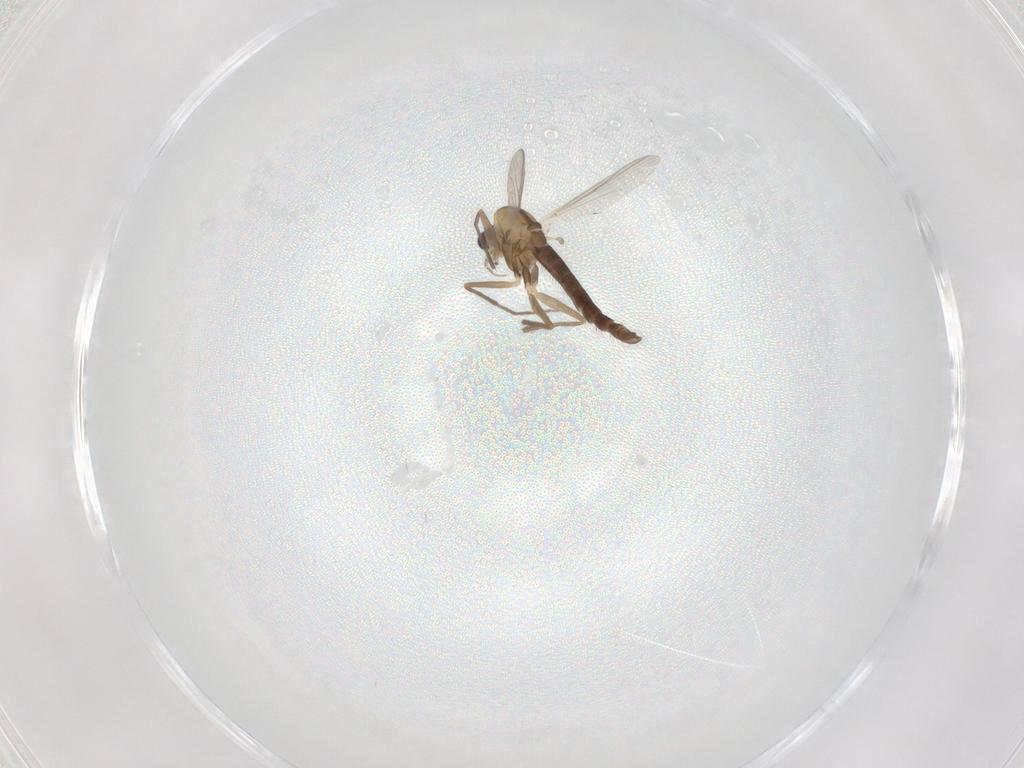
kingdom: Animalia
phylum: Arthropoda
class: Insecta
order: Diptera
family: Chironomidae
